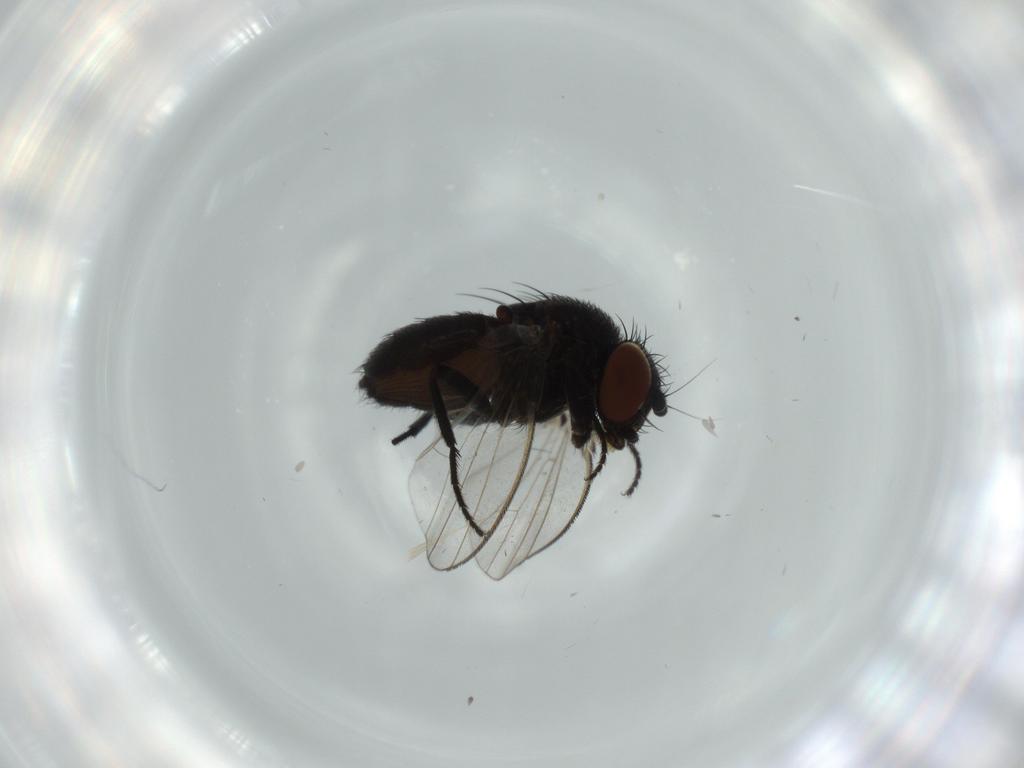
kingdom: Animalia
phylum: Arthropoda
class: Insecta
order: Diptera
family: Milichiidae
